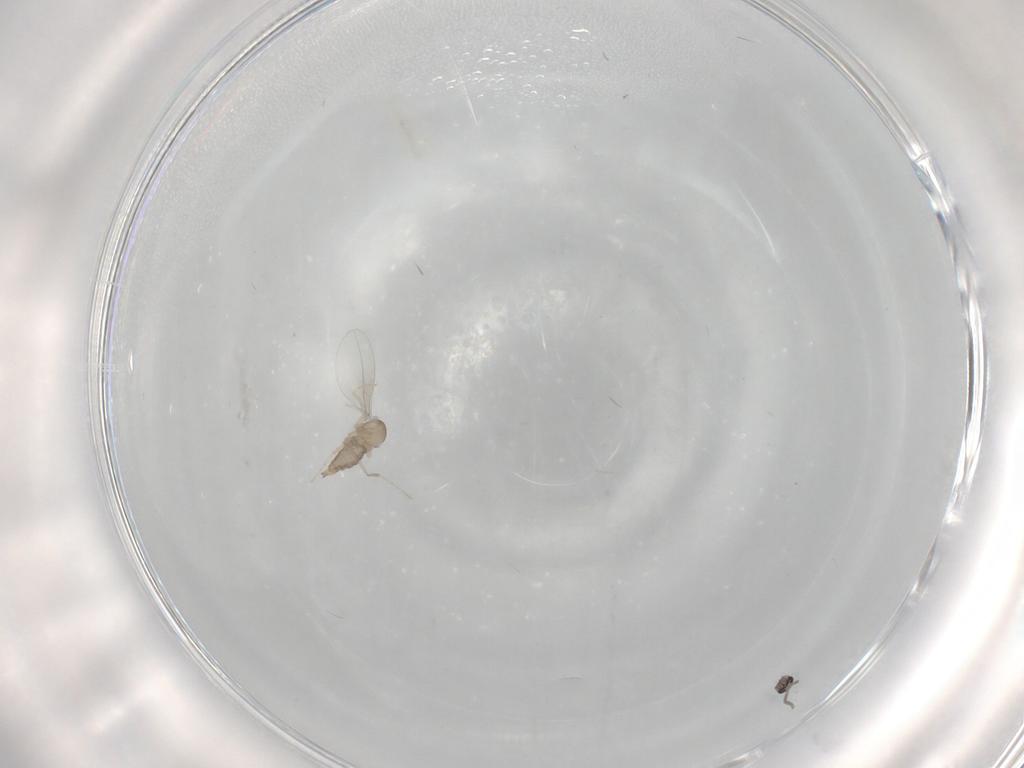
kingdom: Animalia
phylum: Arthropoda
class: Insecta
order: Diptera
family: Cecidomyiidae
